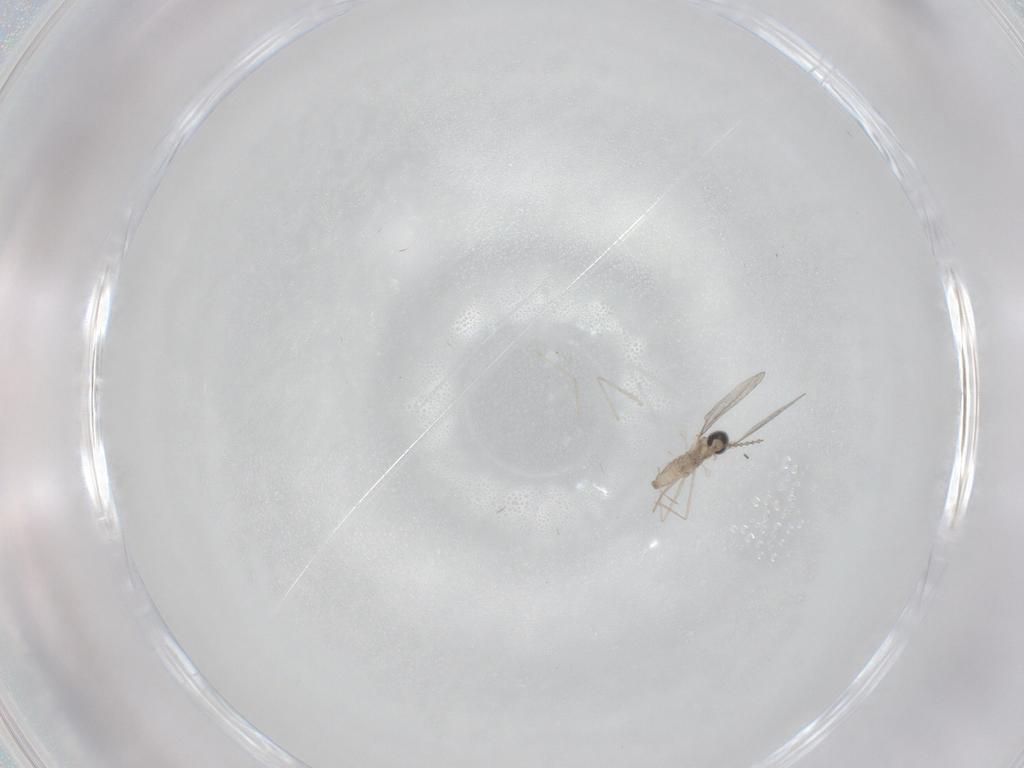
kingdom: Animalia
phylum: Arthropoda
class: Insecta
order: Diptera
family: Cecidomyiidae
